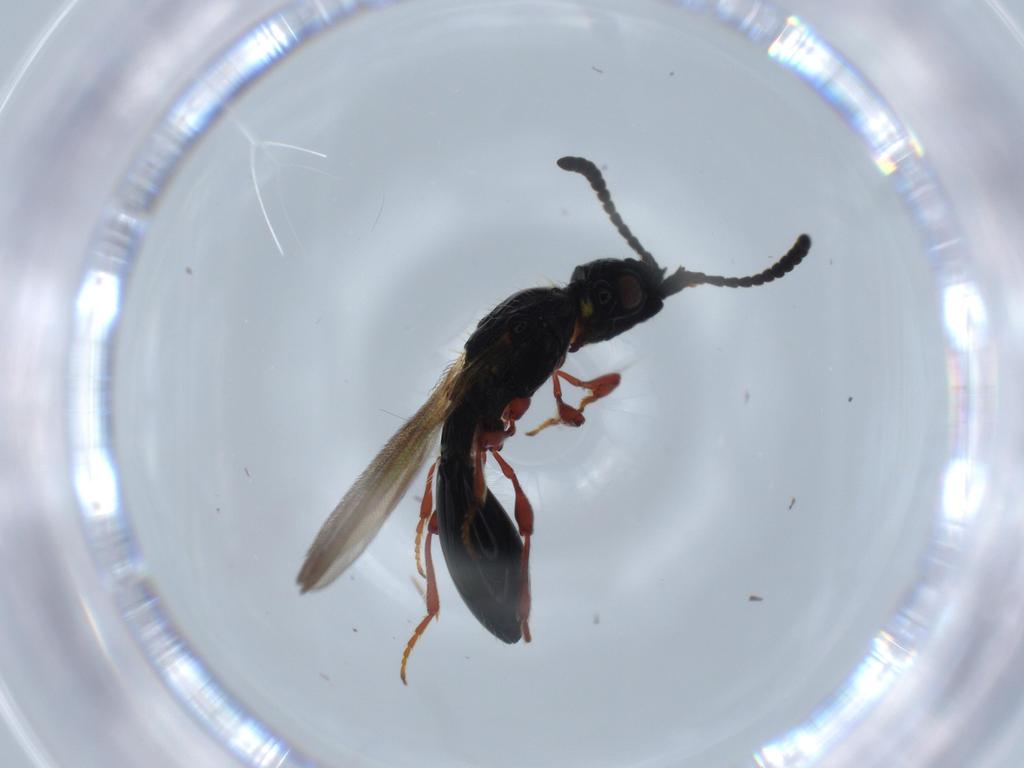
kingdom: Animalia
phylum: Arthropoda
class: Insecta
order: Hymenoptera
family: Diapriidae
